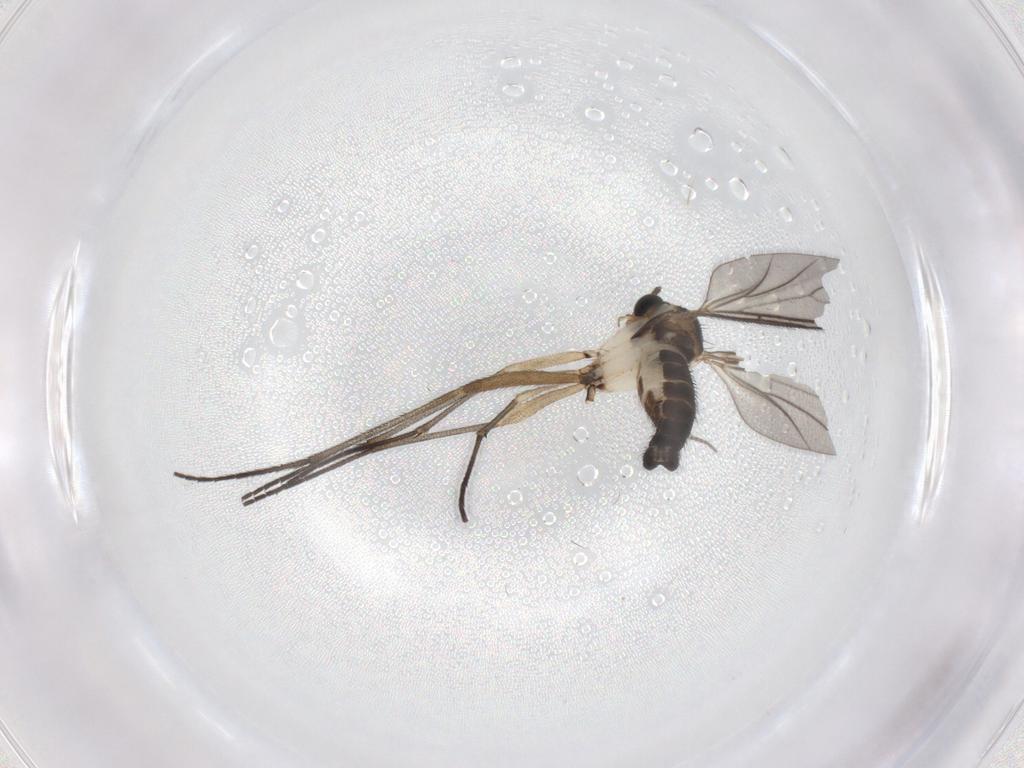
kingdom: Animalia
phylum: Arthropoda
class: Insecta
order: Diptera
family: Sciaridae
